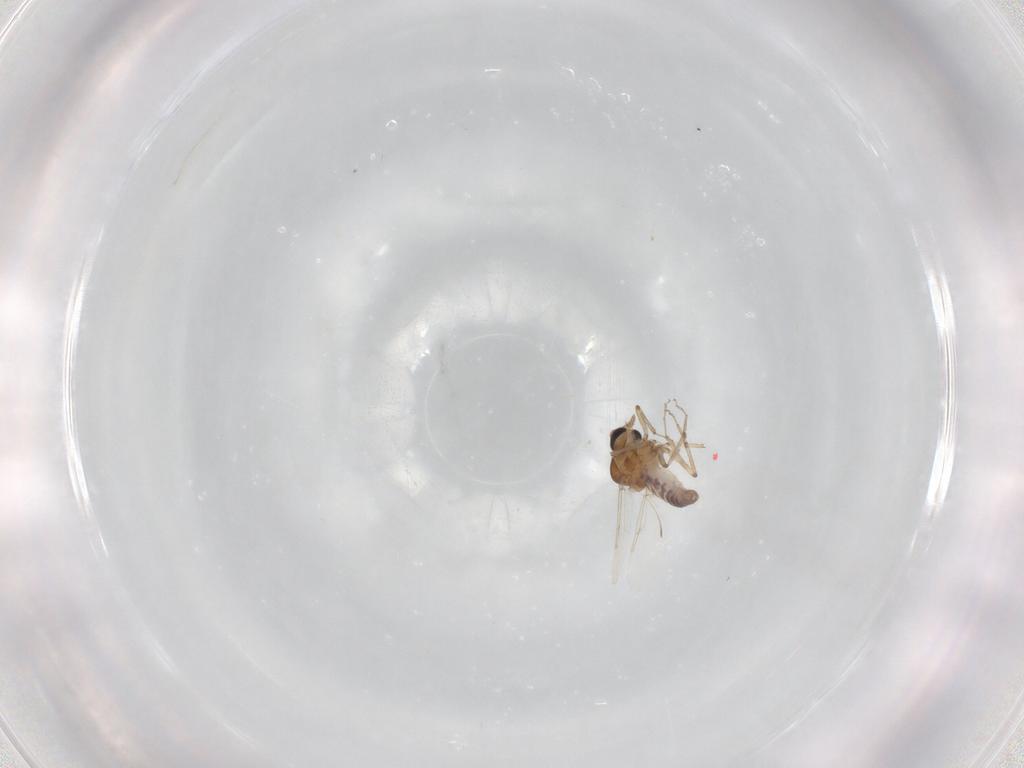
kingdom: Animalia
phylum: Arthropoda
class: Insecta
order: Diptera
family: Ceratopogonidae
